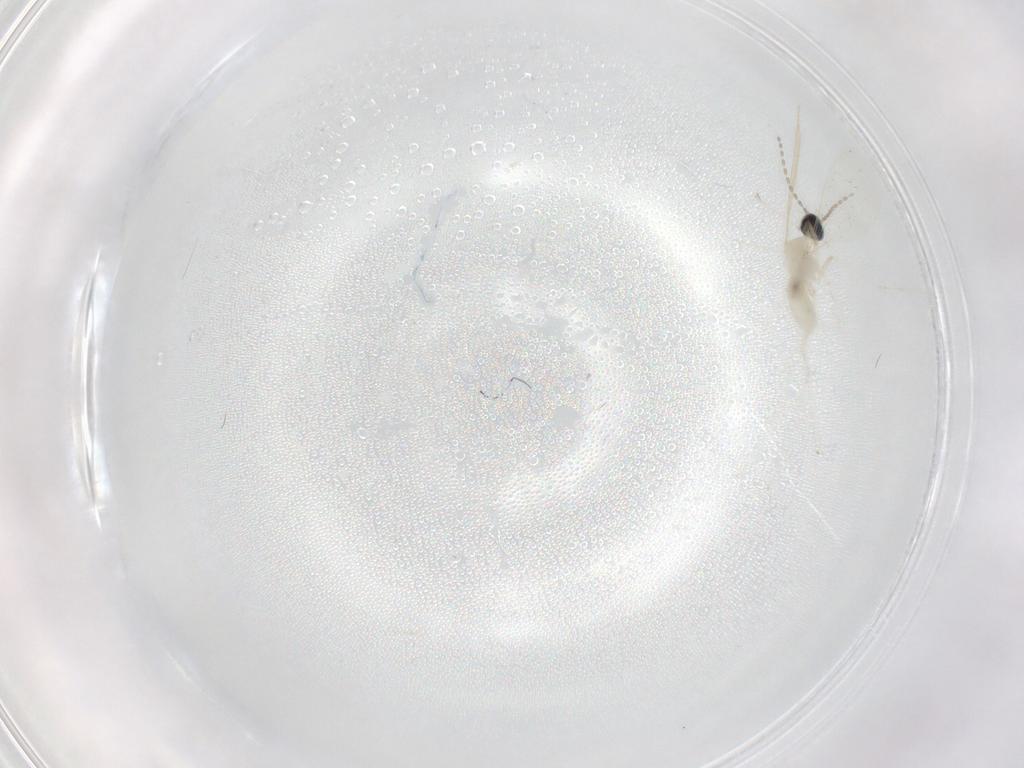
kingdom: Animalia
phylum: Arthropoda
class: Insecta
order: Diptera
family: Cecidomyiidae
